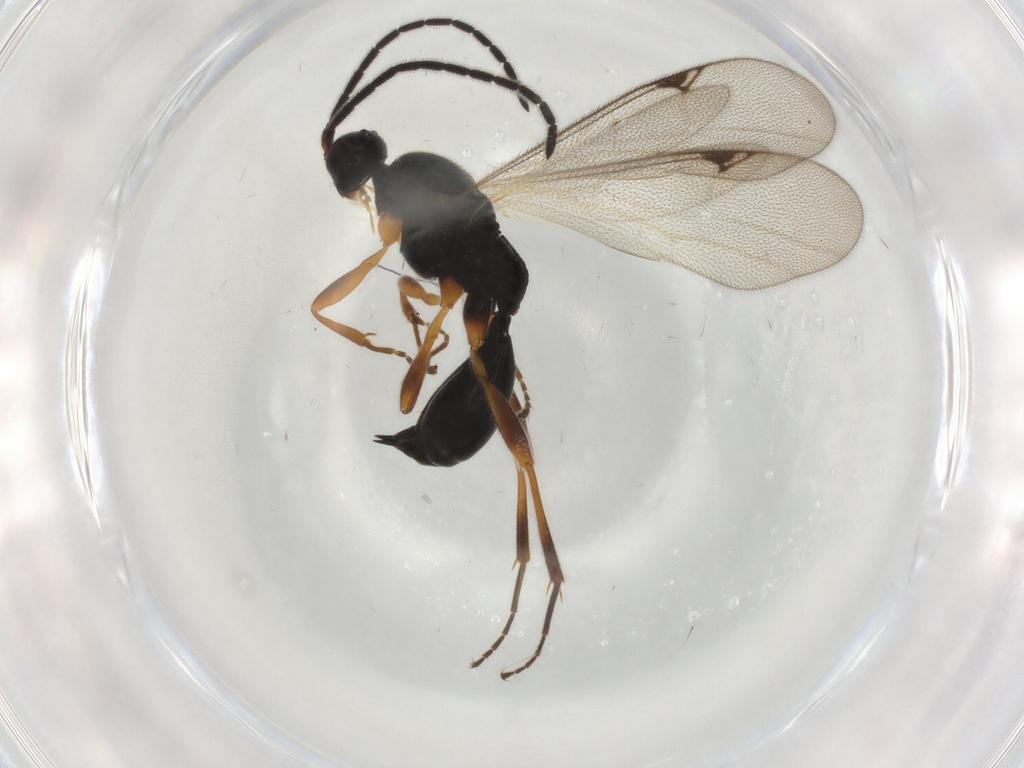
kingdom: Animalia
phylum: Arthropoda
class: Insecta
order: Hymenoptera
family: Proctotrupidae
